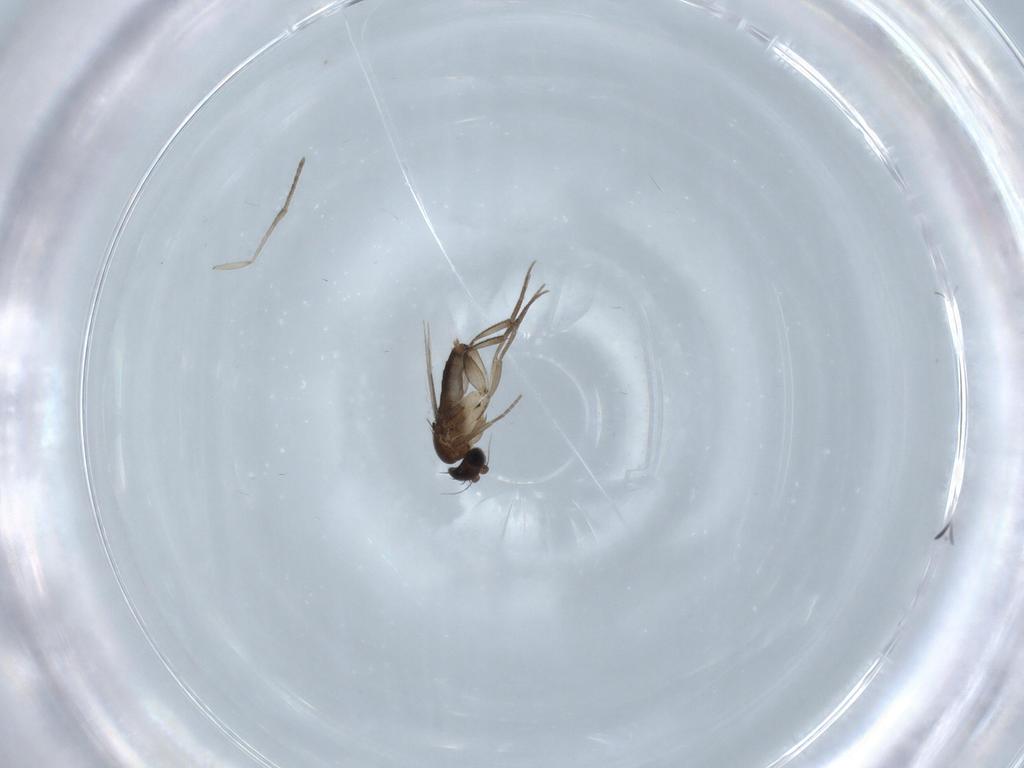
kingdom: Animalia
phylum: Arthropoda
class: Insecta
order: Diptera
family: Phoridae
